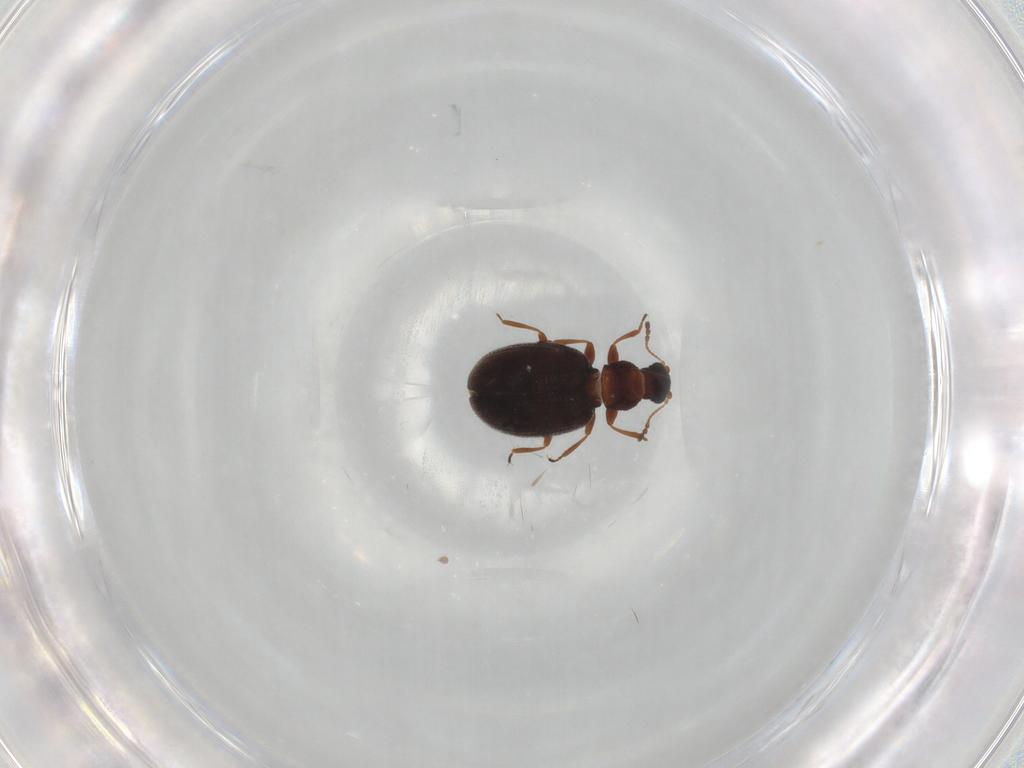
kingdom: Animalia
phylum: Arthropoda
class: Insecta
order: Coleoptera
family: Latridiidae
